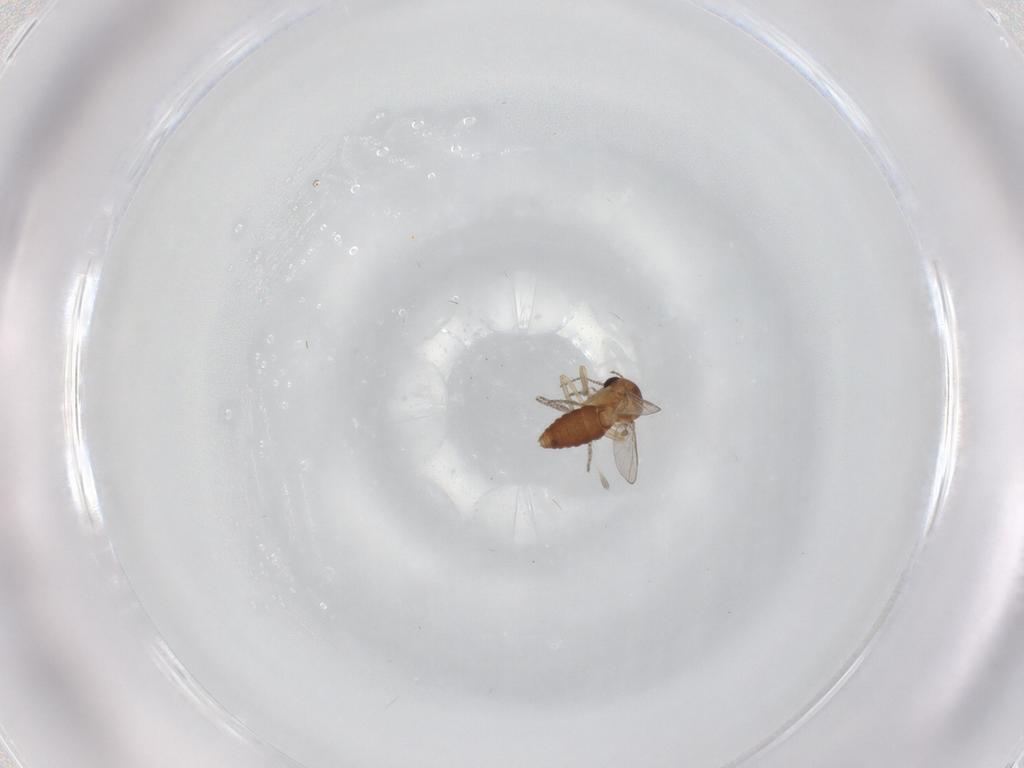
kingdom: Animalia
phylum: Arthropoda
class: Insecta
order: Diptera
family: Ceratopogonidae
